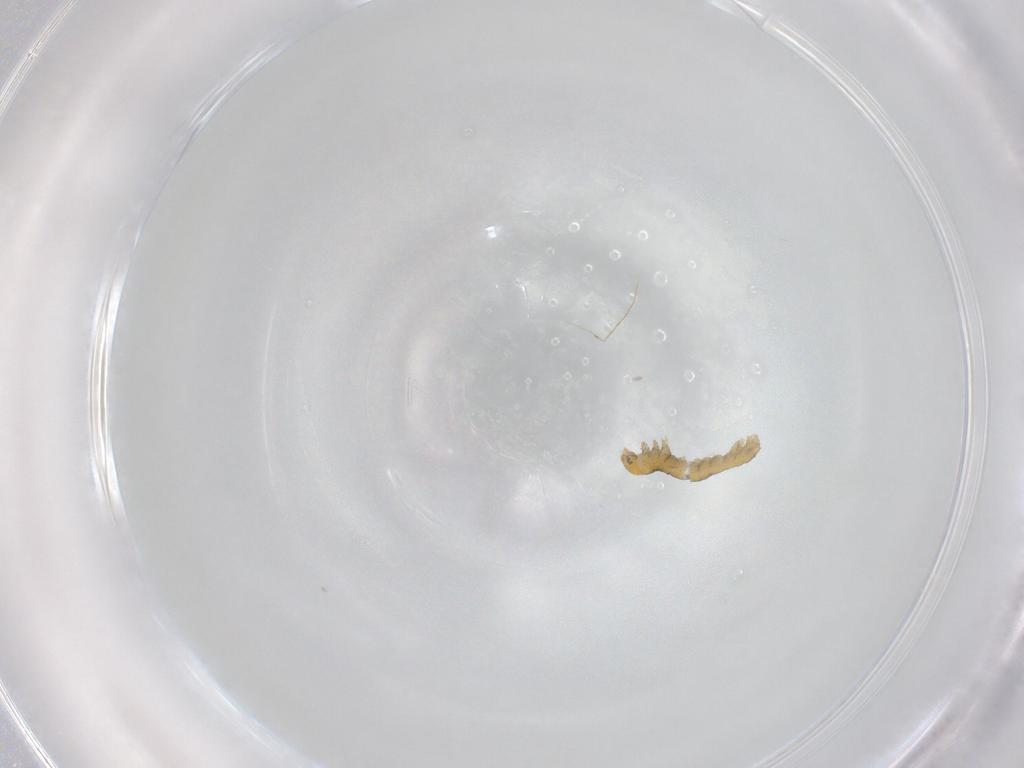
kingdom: Animalia
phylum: Arthropoda
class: Insecta
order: Lepidoptera
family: Geometridae
